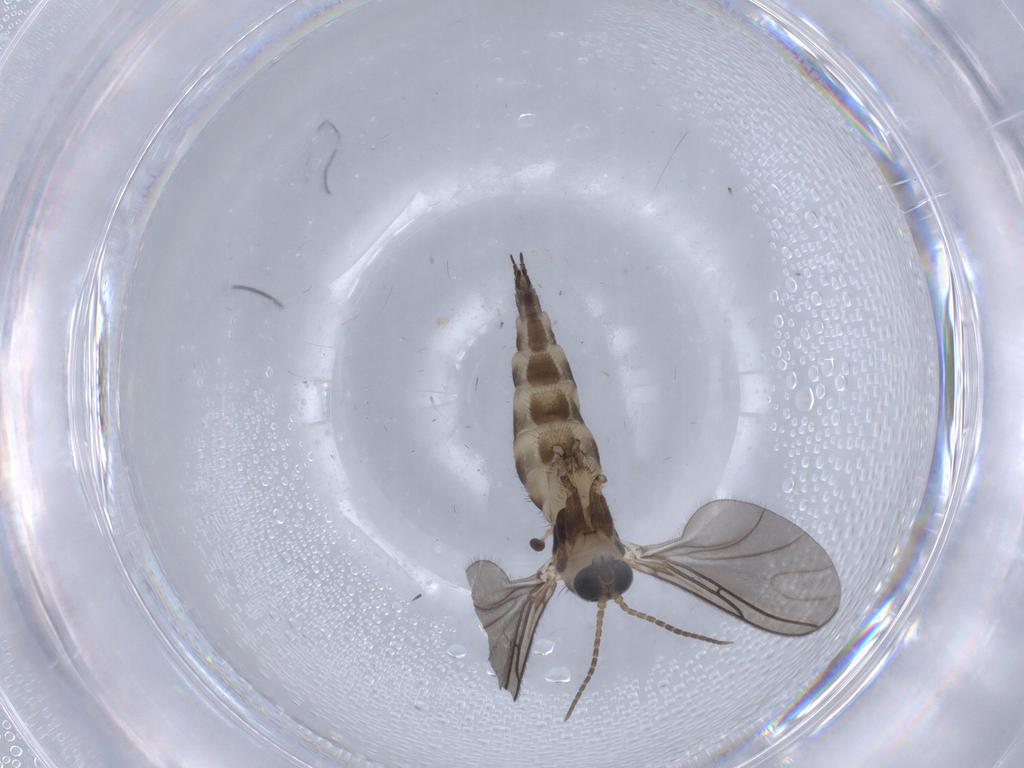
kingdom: Animalia
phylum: Arthropoda
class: Insecta
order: Diptera
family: Sciaridae
